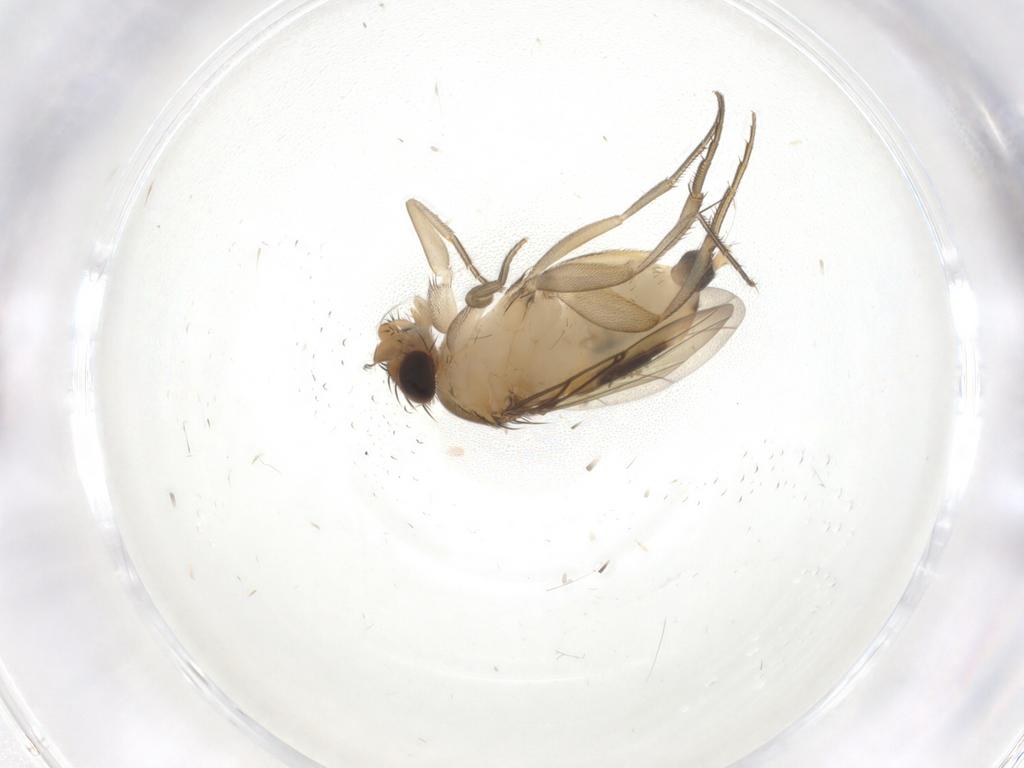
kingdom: Animalia
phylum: Arthropoda
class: Insecta
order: Diptera
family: Phoridae
